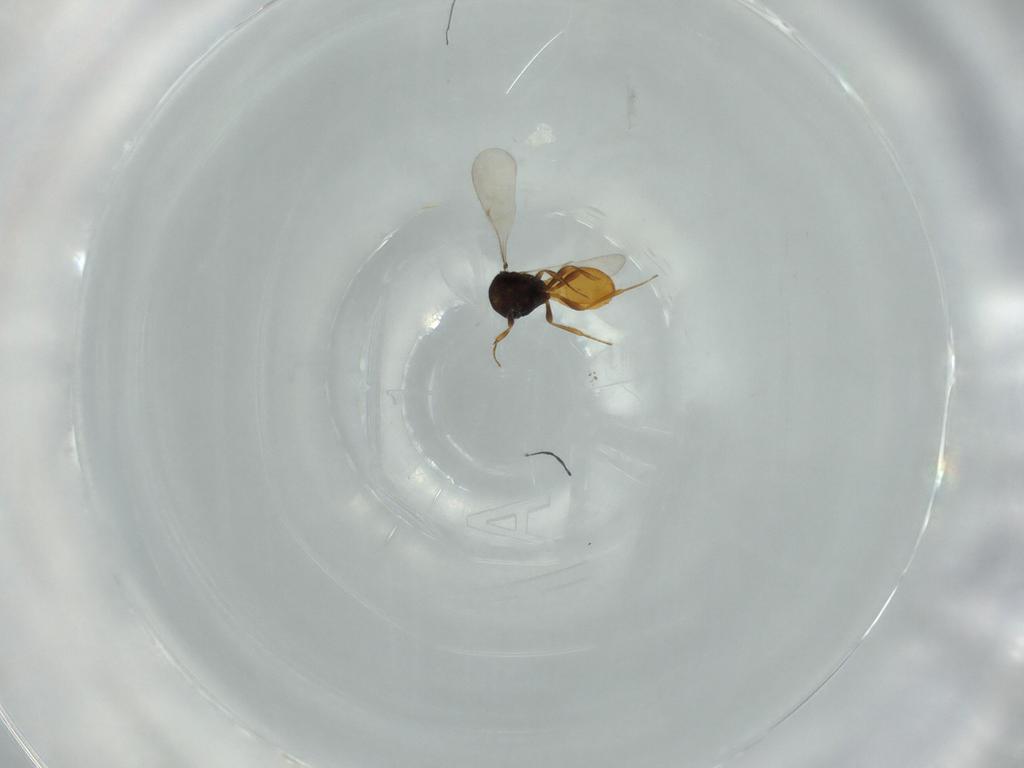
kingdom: Animalia
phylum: Arthropoda
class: Insecta
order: Hymenoptera
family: Scelionidae
